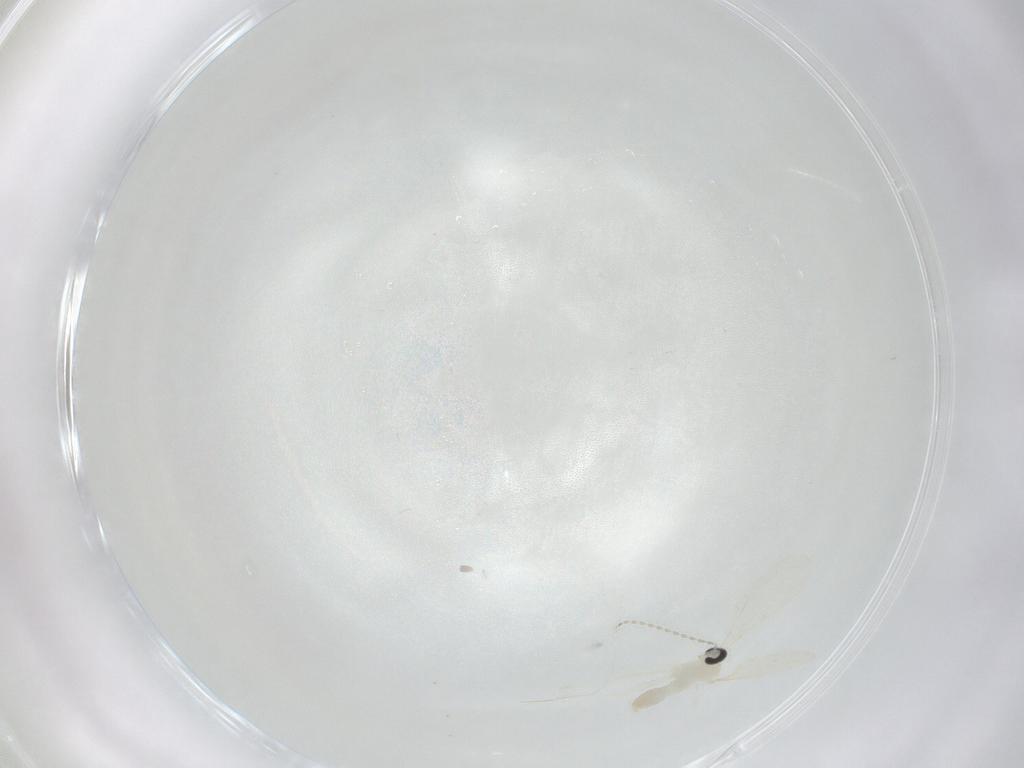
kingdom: Animalia
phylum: Arthropoda
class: Insecta
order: Diptera
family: Cecidomyiidae
